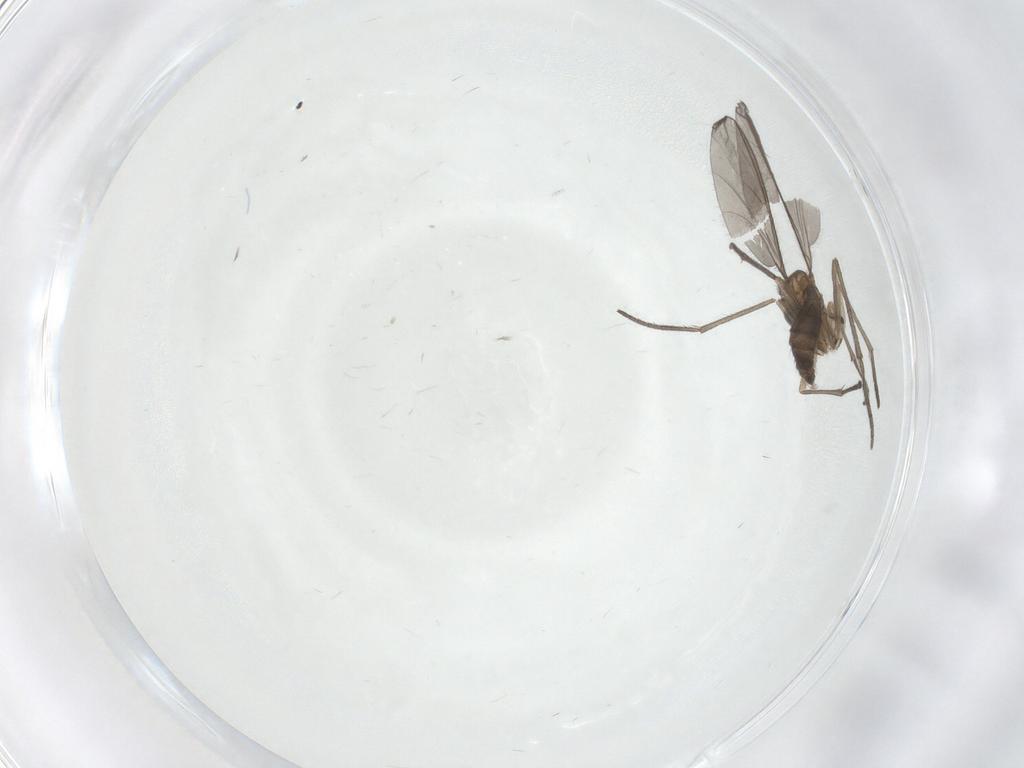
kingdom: Animalia
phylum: Arthropoda
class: Insecta
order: Diptera
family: Sciaridae
